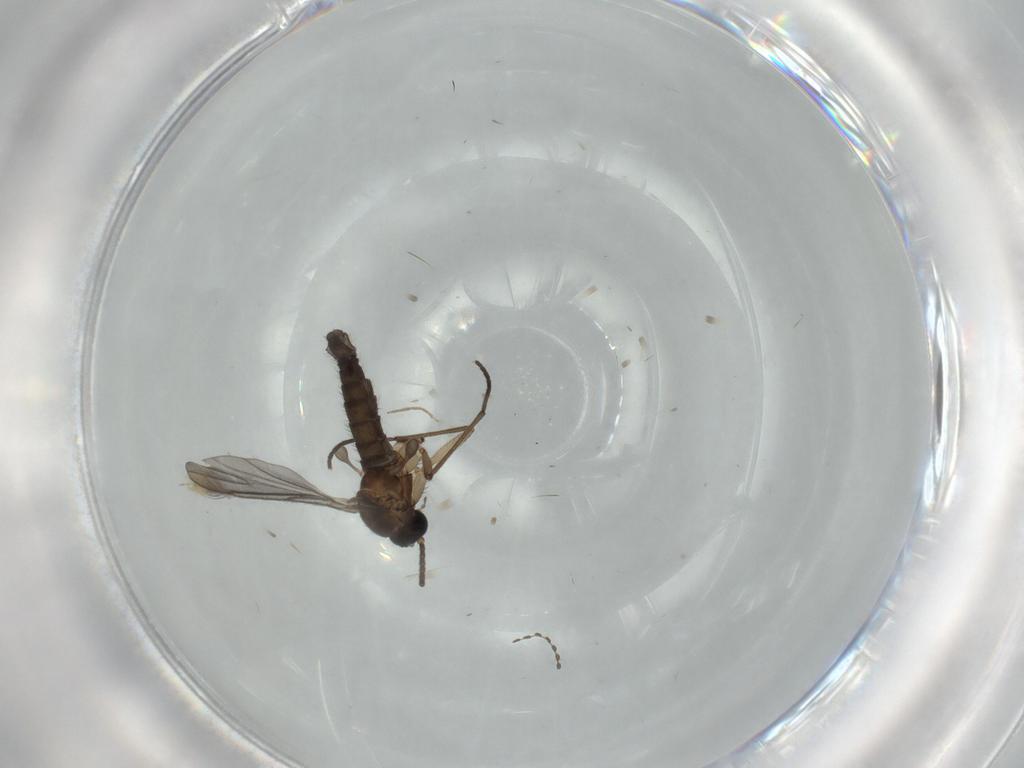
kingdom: Animalia
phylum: Arthropoda
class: Insecta
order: Diptera
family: Sciaridae
